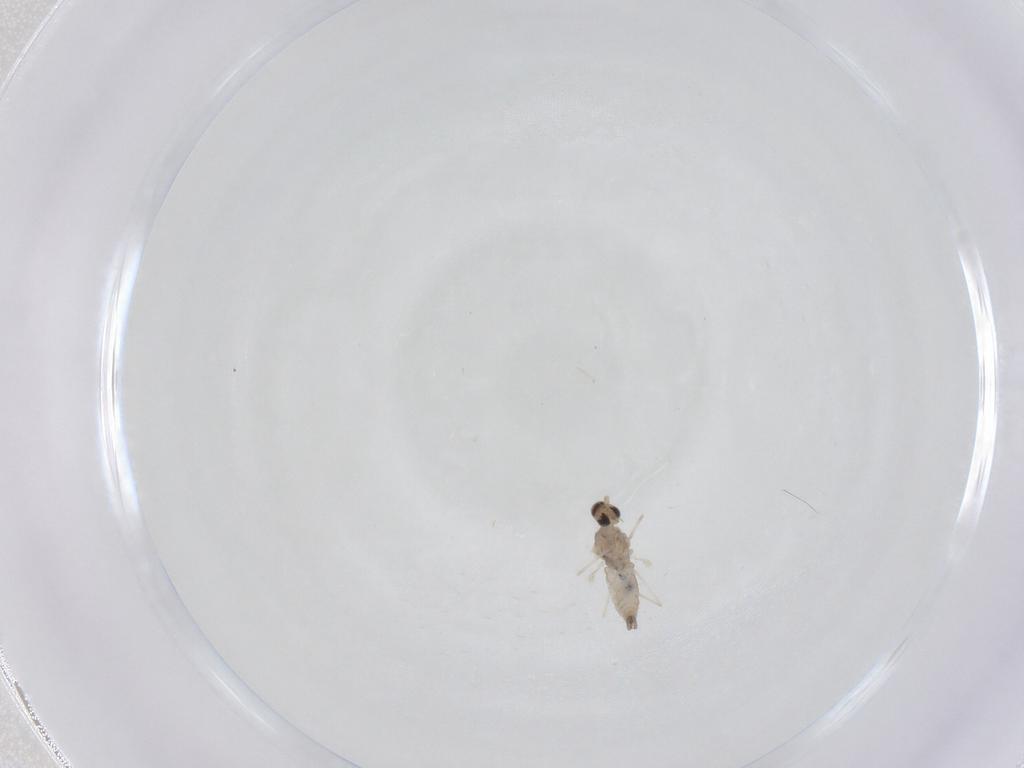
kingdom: Animalia
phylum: Arthropoda
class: Insecta
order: Diptera
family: Cecidomyiidae
